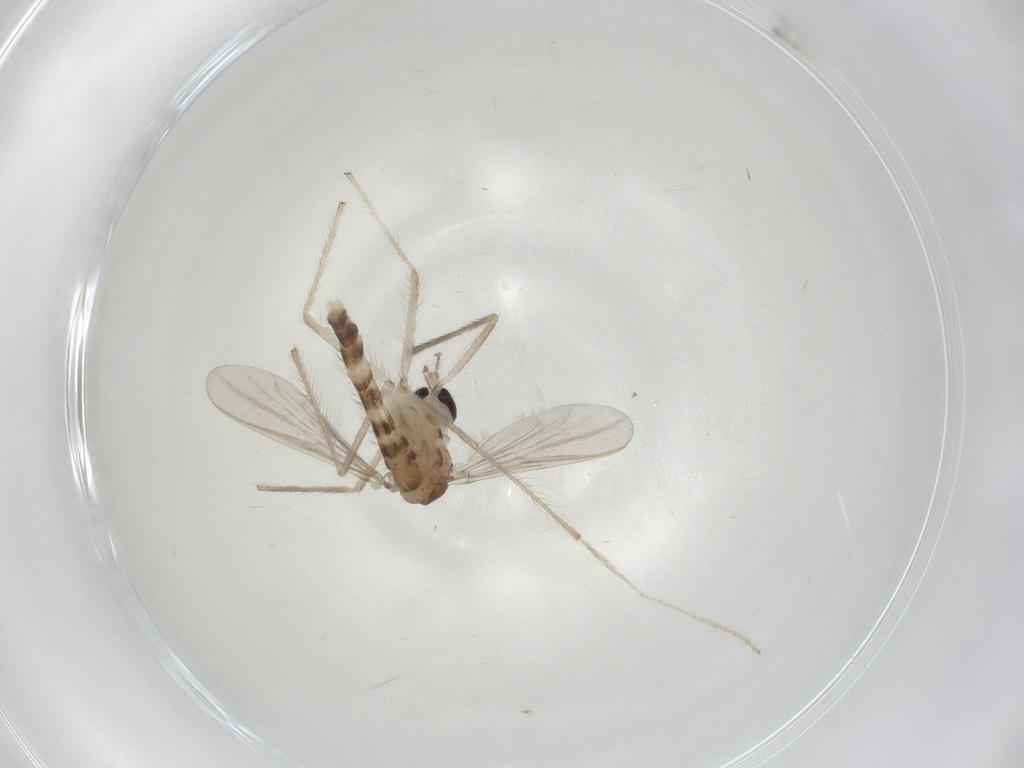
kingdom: Animalia
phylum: Arthropoda
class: Insecta
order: Diptera
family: Chironomidae
